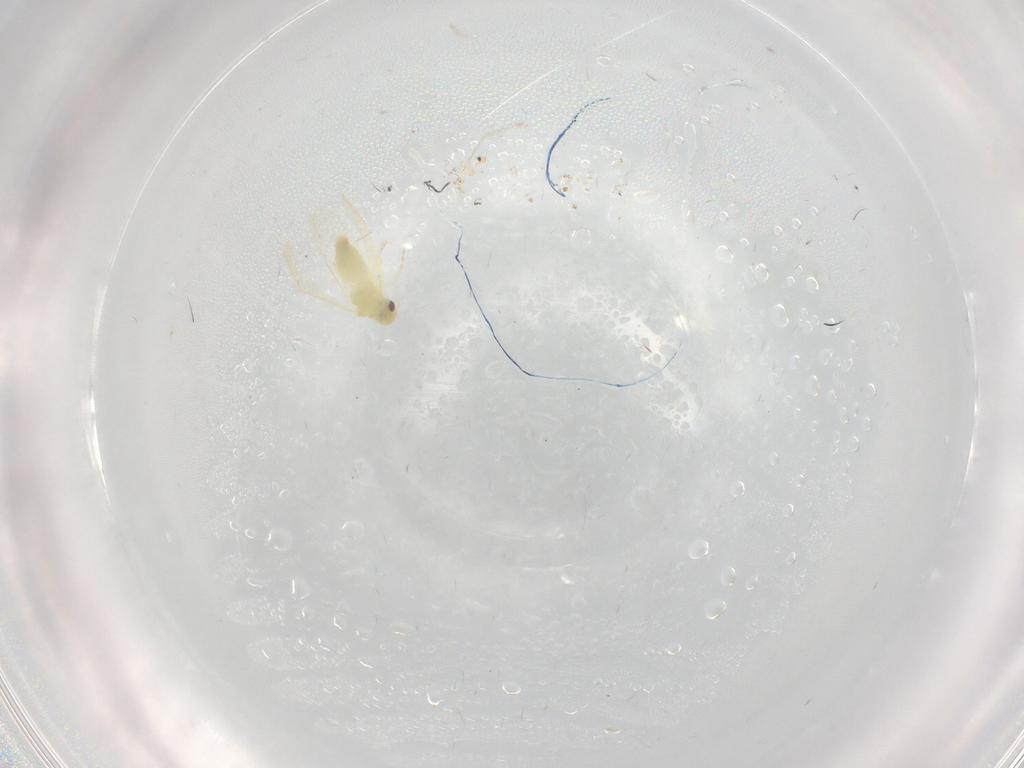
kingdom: Animalia
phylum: Arthropoda
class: Insecta
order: Hemiptera
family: Aleyrodidae
